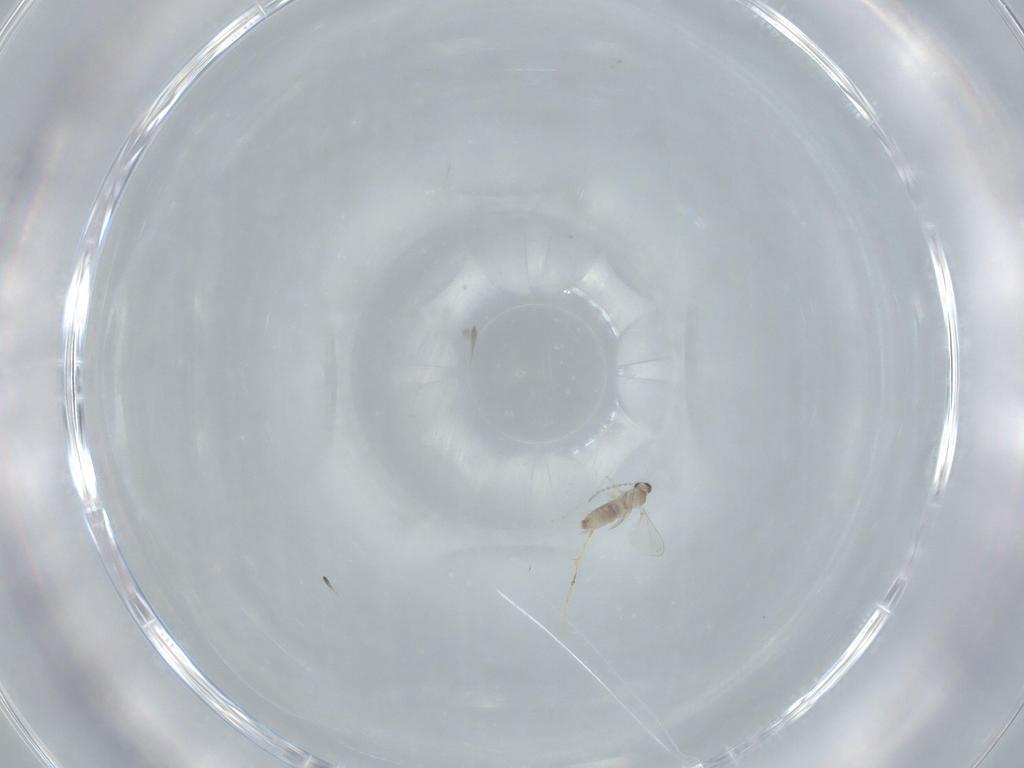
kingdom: Animalia
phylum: Arthropoda
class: Insecta
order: Diptera
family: Cecidomyiidae
